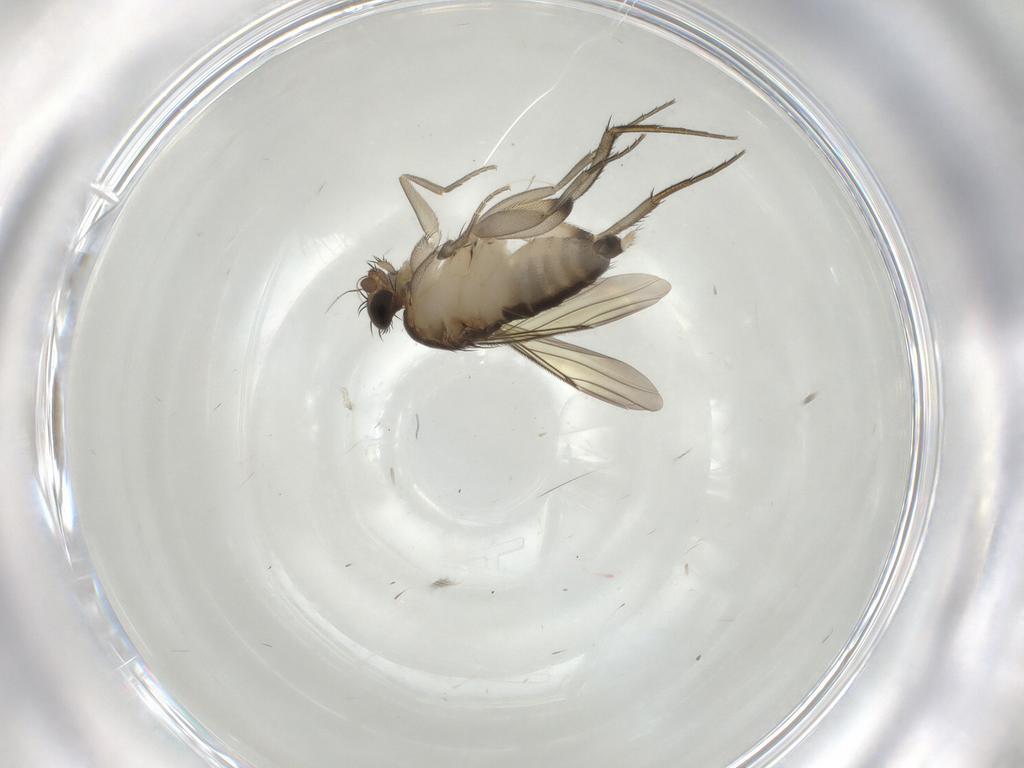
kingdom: Animalia
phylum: Arthropoda
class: Insecta
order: Diptera
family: Phoridae
